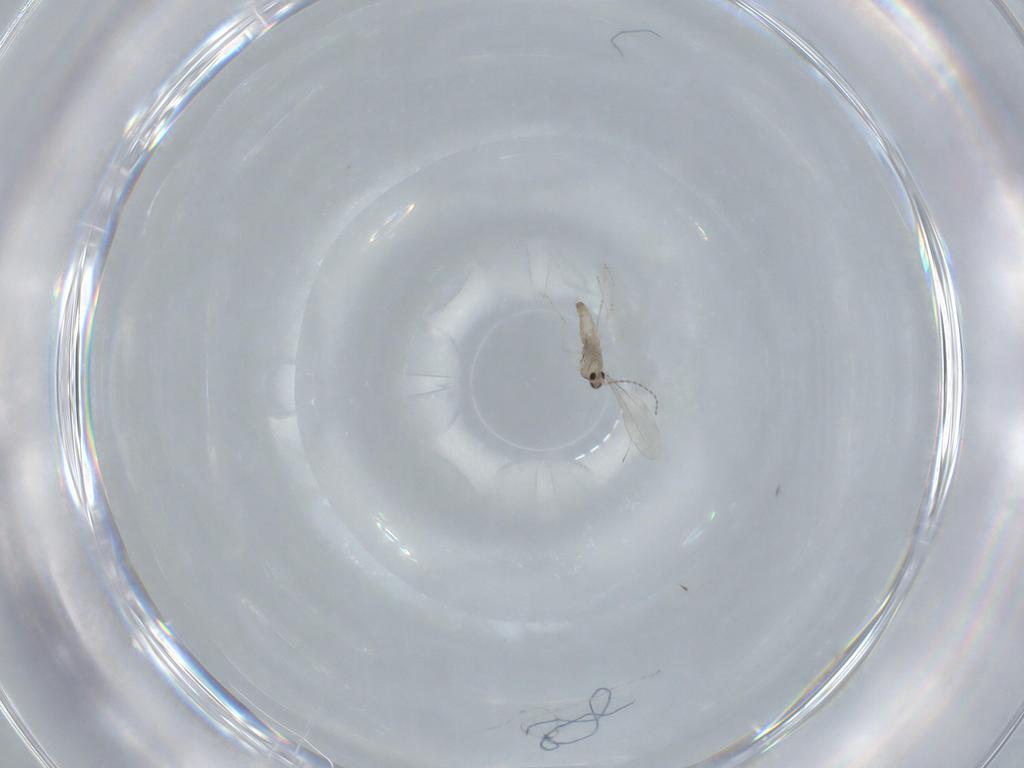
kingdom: Animalia
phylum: Arthropoda
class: Insecta
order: Diptera
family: Cecidomyiidae
